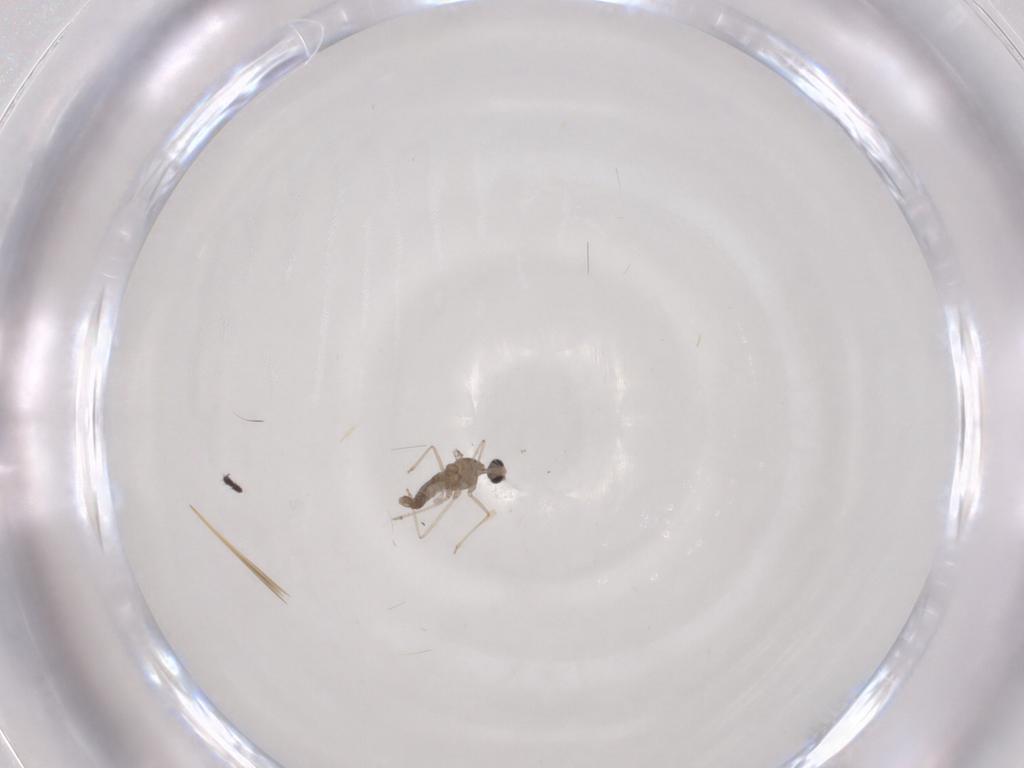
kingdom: Animalia
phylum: Arthropoda
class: Insecta
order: Diptera
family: Cecidomyiidae
